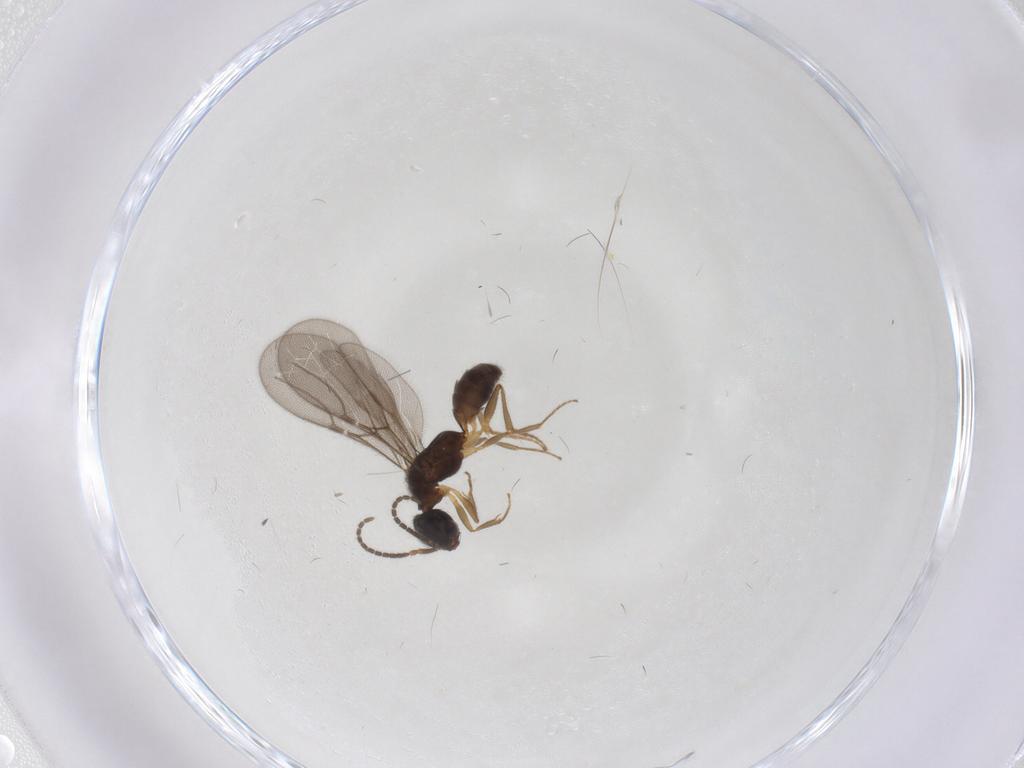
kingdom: Animalia
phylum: Arthropoda
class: Insecta
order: Hymenoptera
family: Bethylidae
